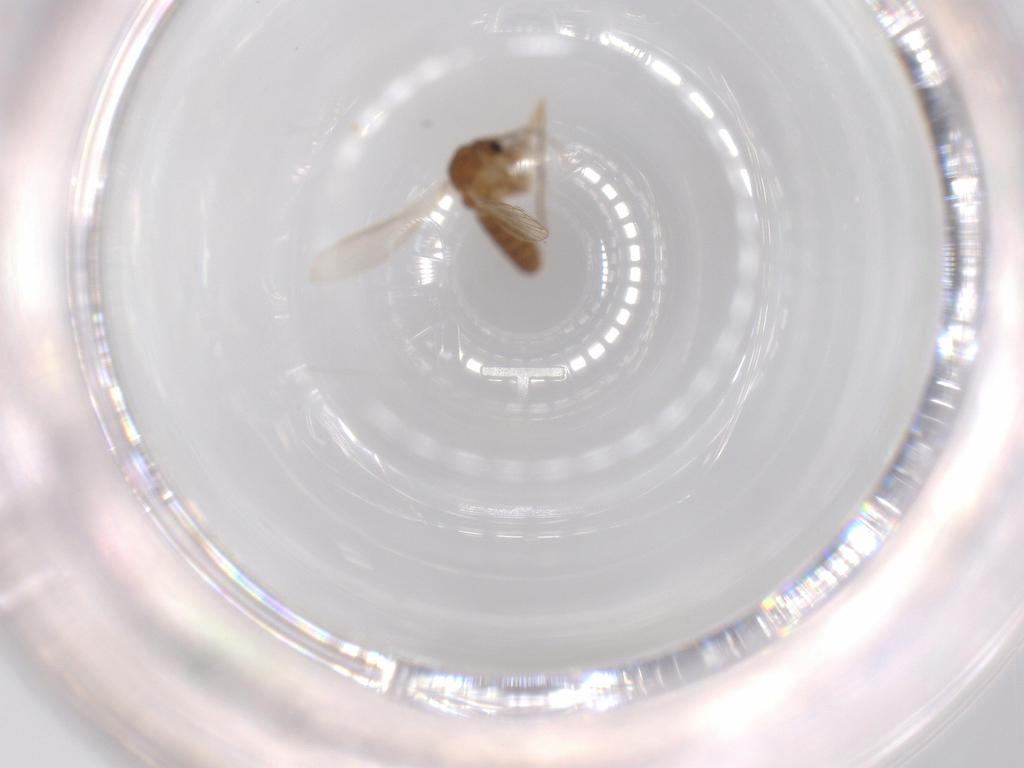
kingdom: Animalia
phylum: Arthropoda
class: Insecta
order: Diptera
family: Psychodidae
